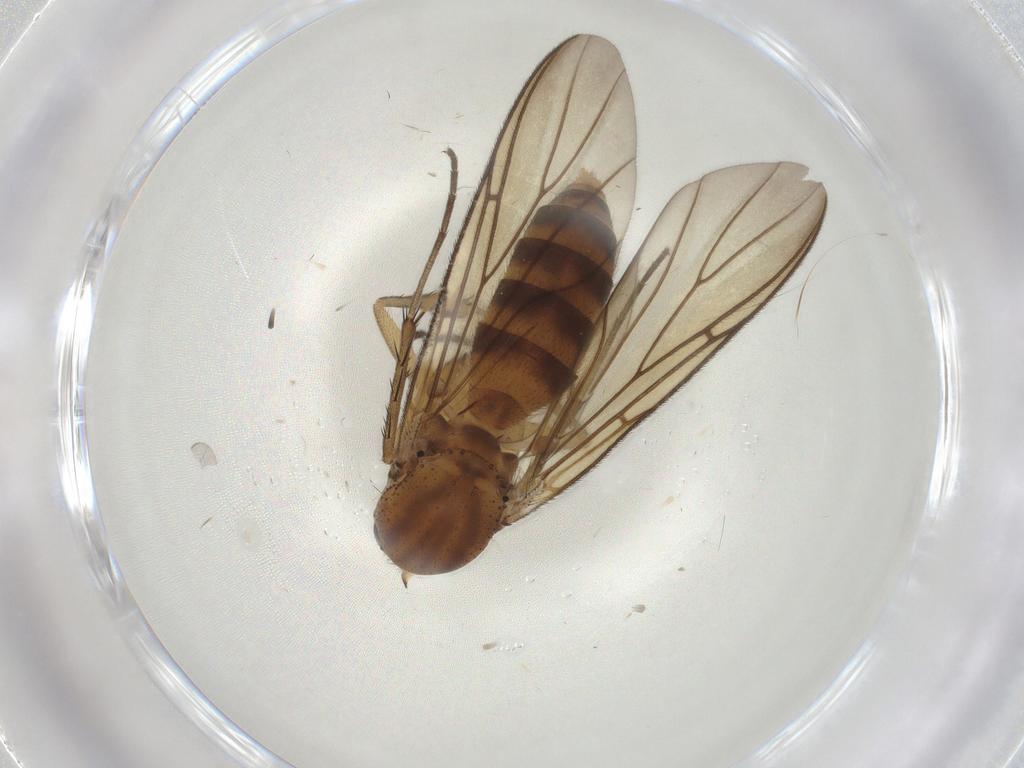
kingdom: Animalia
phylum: Arthropoda
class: Insecta
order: Diptera
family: Mycetophilidae
